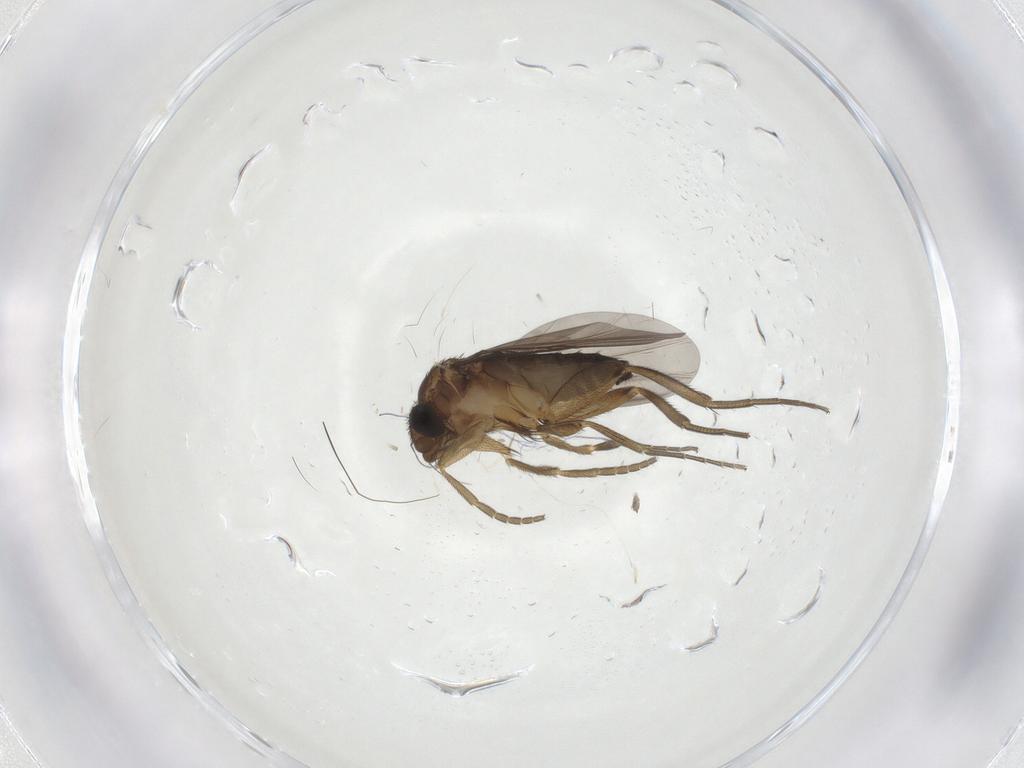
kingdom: Animalia
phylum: Arthropoda
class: Insecta
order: Diptera
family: Phoridae
